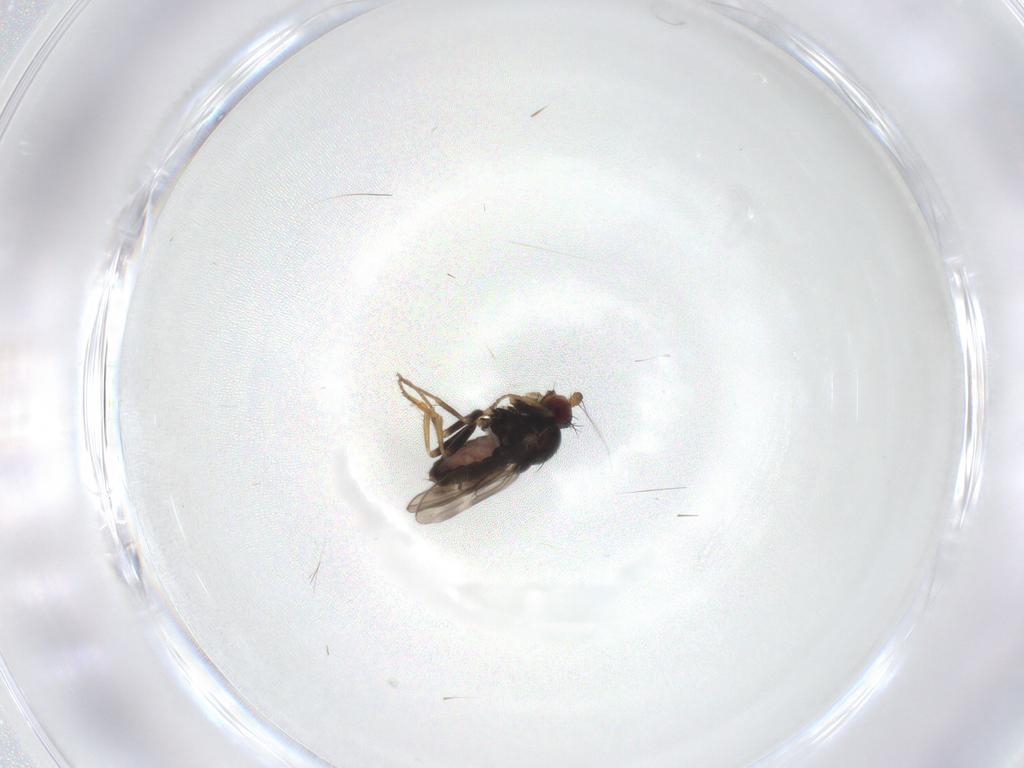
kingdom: Animalia
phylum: Arthropoda
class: Insecta
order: Diptera
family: Sphaeroceridae
